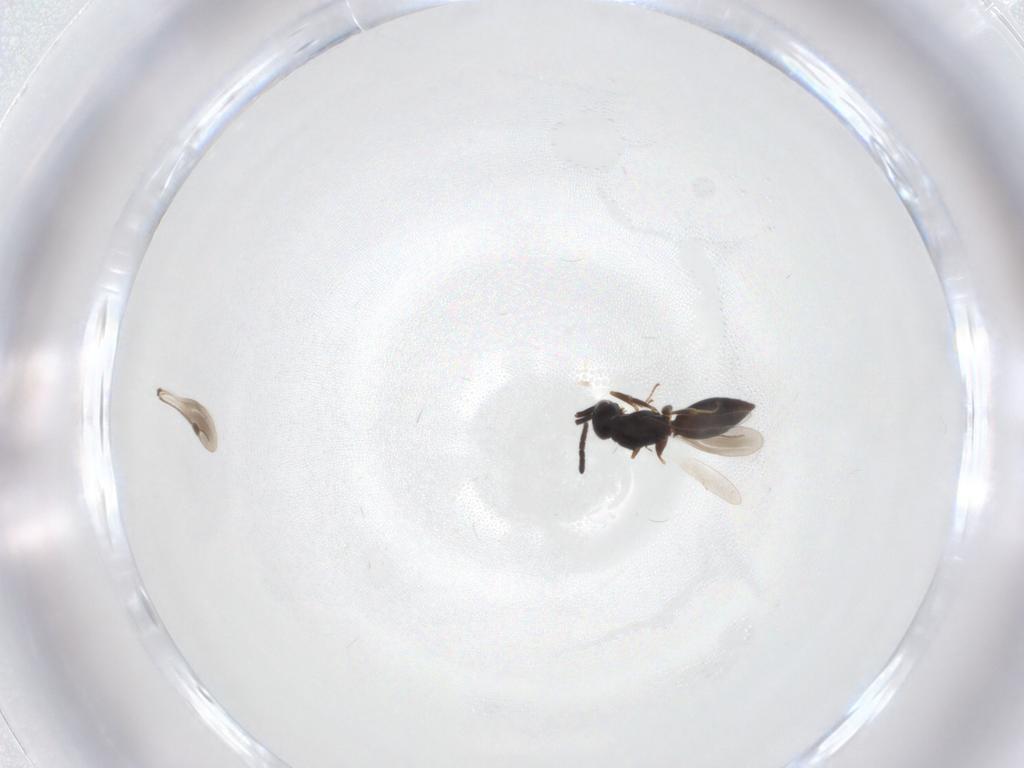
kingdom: Animalia
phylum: Arthropoda
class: Insecta
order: Hymenoptera
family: Megaspilidae
